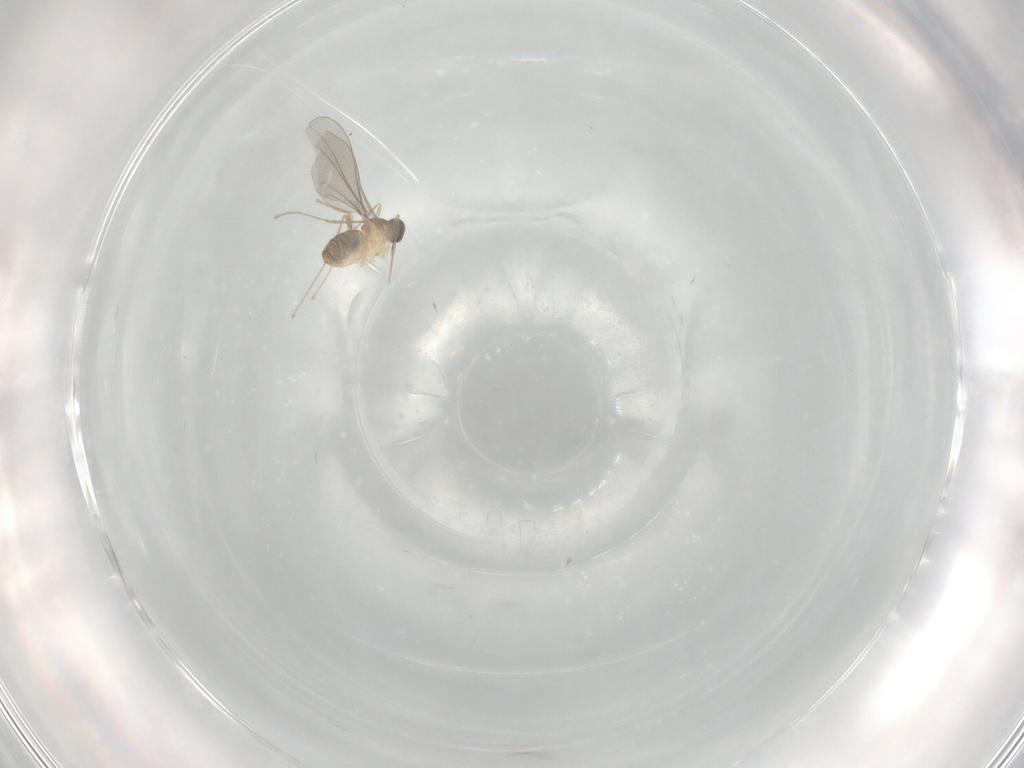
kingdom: Animalia
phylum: Arthropoda
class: Insecta
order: Diptera
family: Cecidomyiidae
